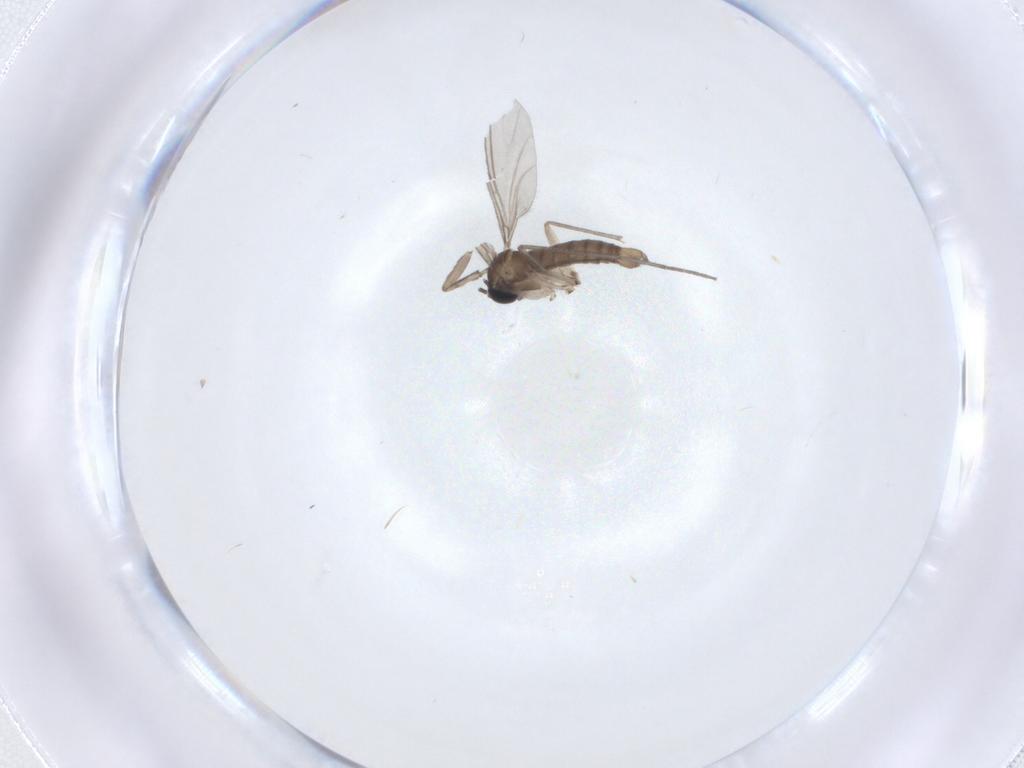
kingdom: Animalia
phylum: Arthropoda
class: Insecta
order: Diptera
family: Sciaridae
